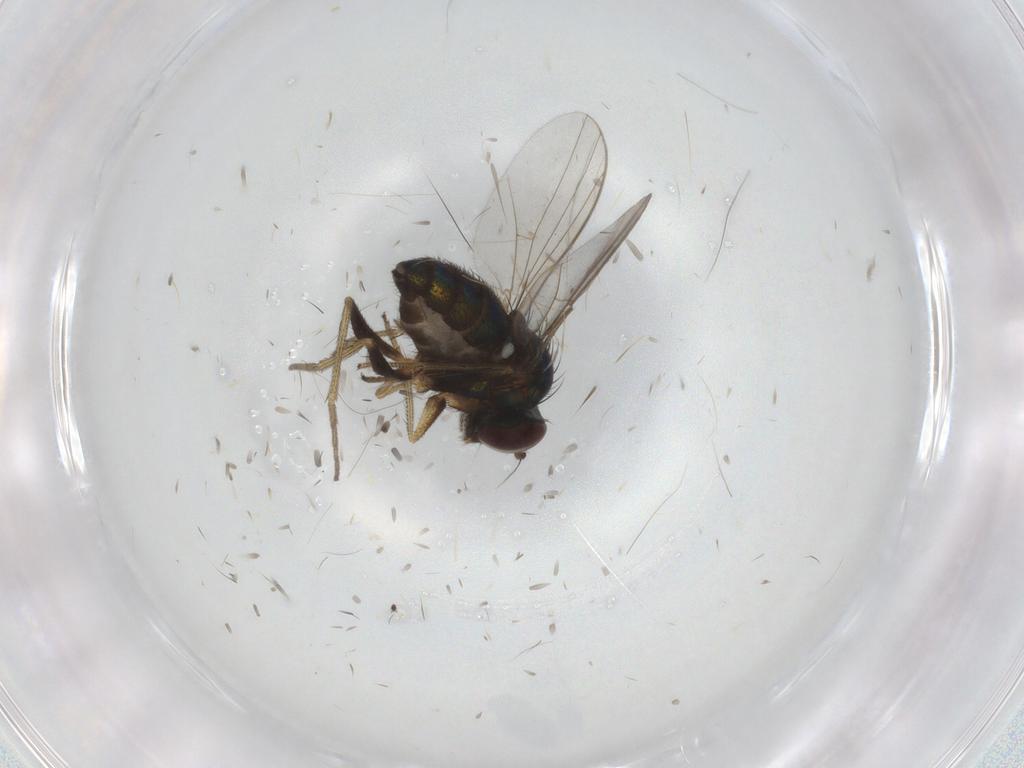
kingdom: Animalia
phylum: Arthropoda
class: Insecta
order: Diptera
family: Dolichopodidae
